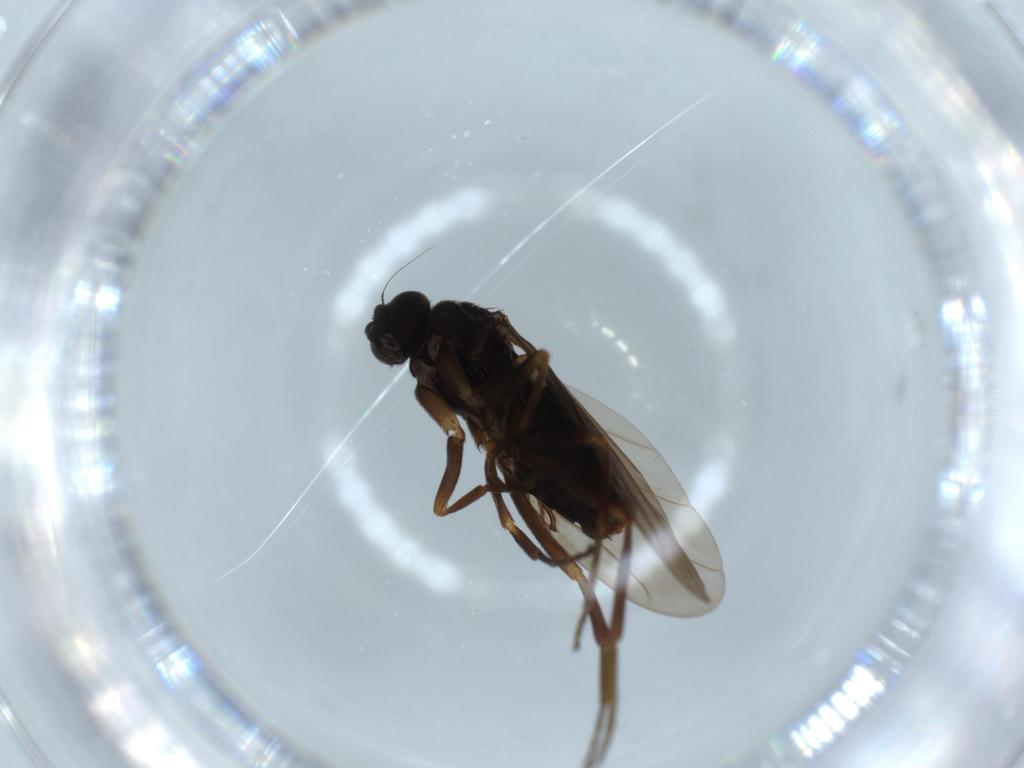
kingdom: Animalia
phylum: Arthropoda
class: Insecta
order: Diptera
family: Phoridae
